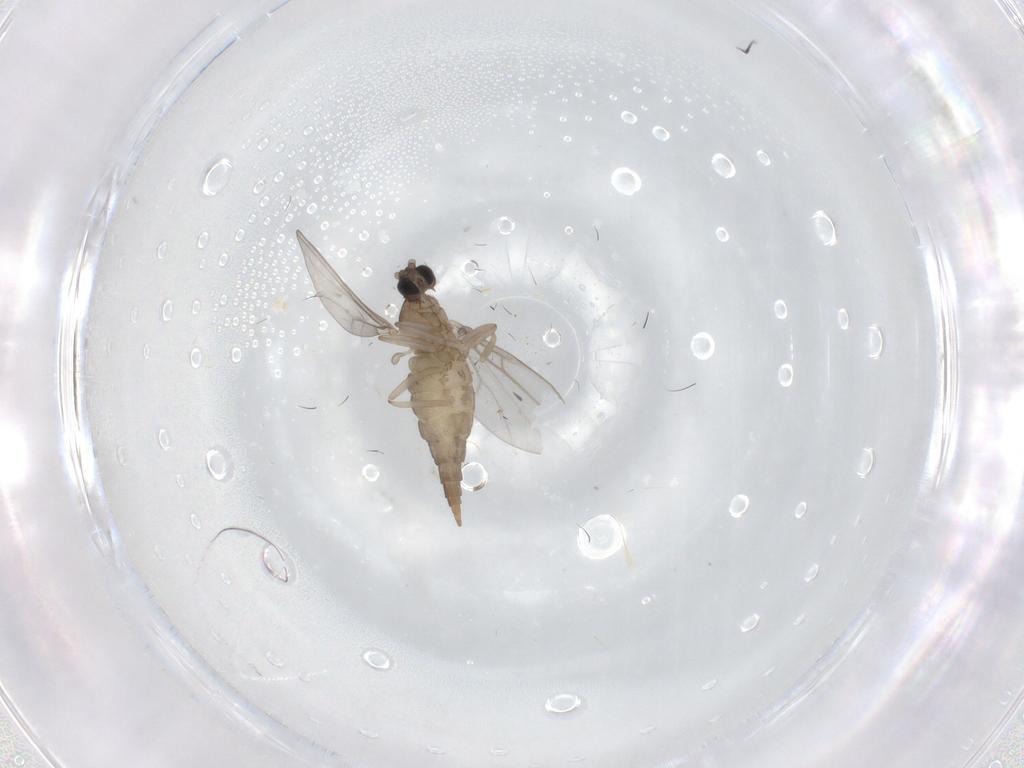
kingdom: Animalia
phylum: Arthropoda
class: Insecta
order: Diptera
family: Cecidomyiidae
